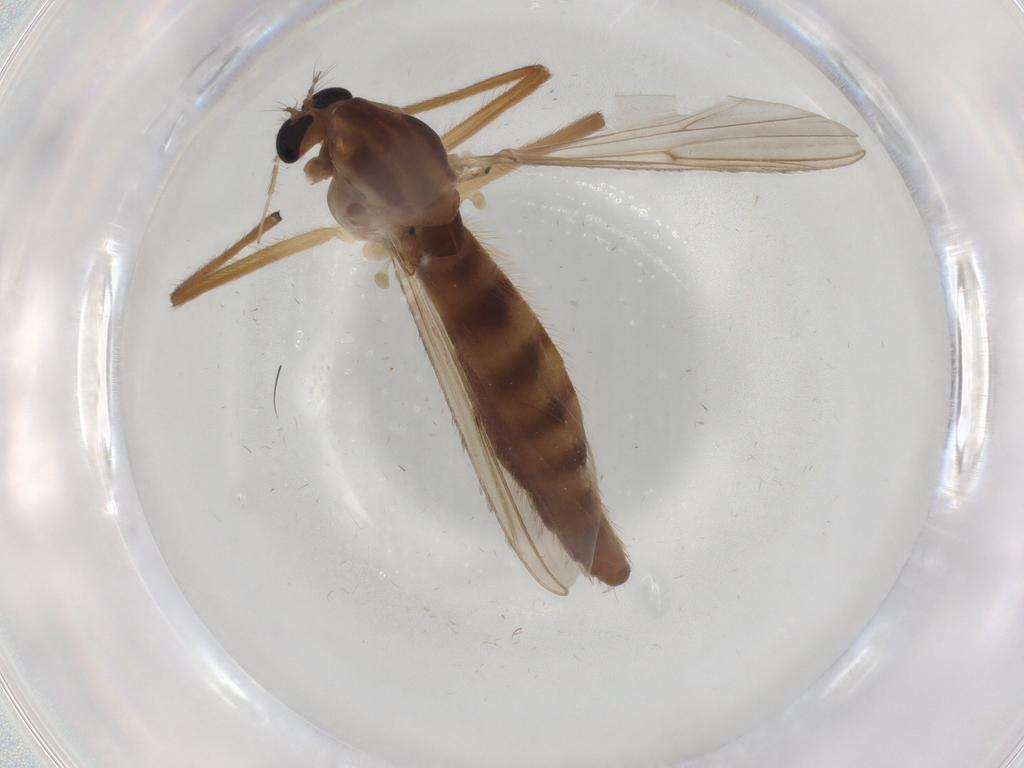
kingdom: Animalia
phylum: Arthropoda
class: Insecta
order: Diptera
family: Chironomidae
